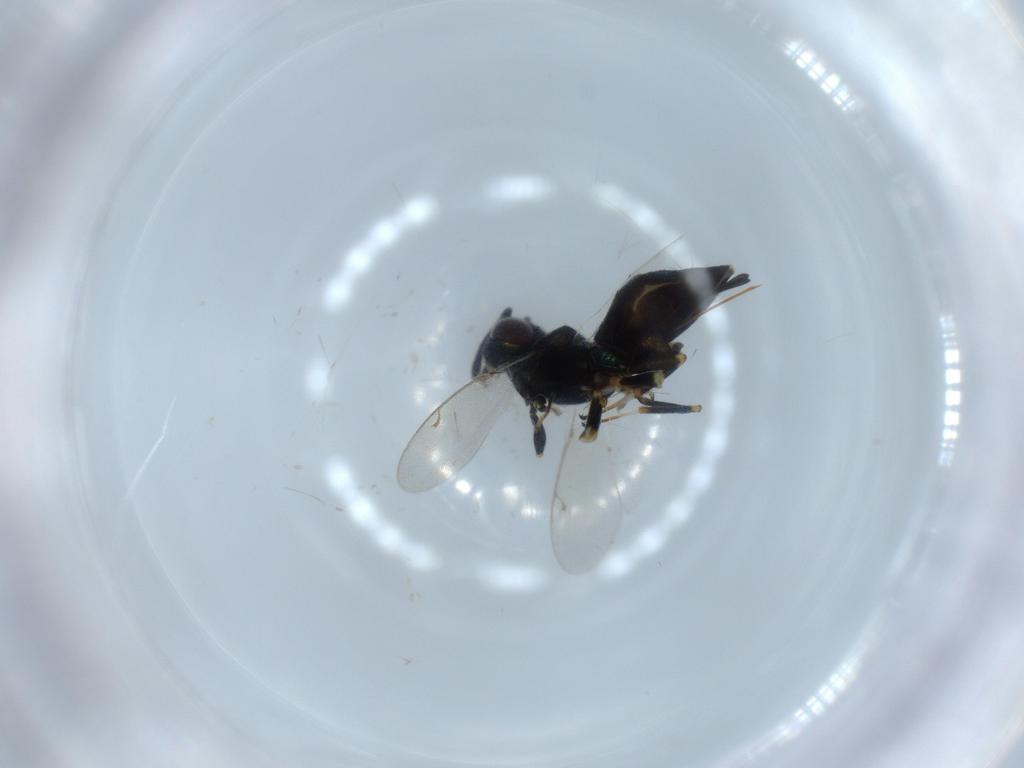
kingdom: Animalia
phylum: Arthropoda
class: Insecta
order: Hymenoptera
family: Eupelmidae
